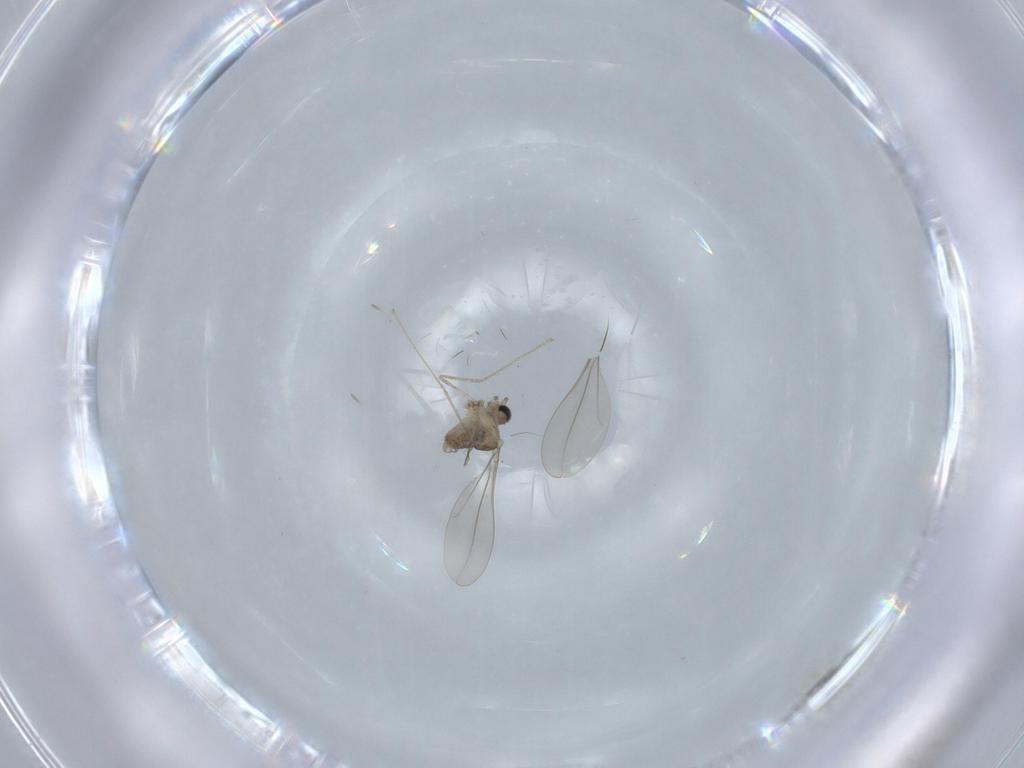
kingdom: Animalia
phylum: Arthropoda
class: Insecta
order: Diptera
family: Cecidomyiidae
